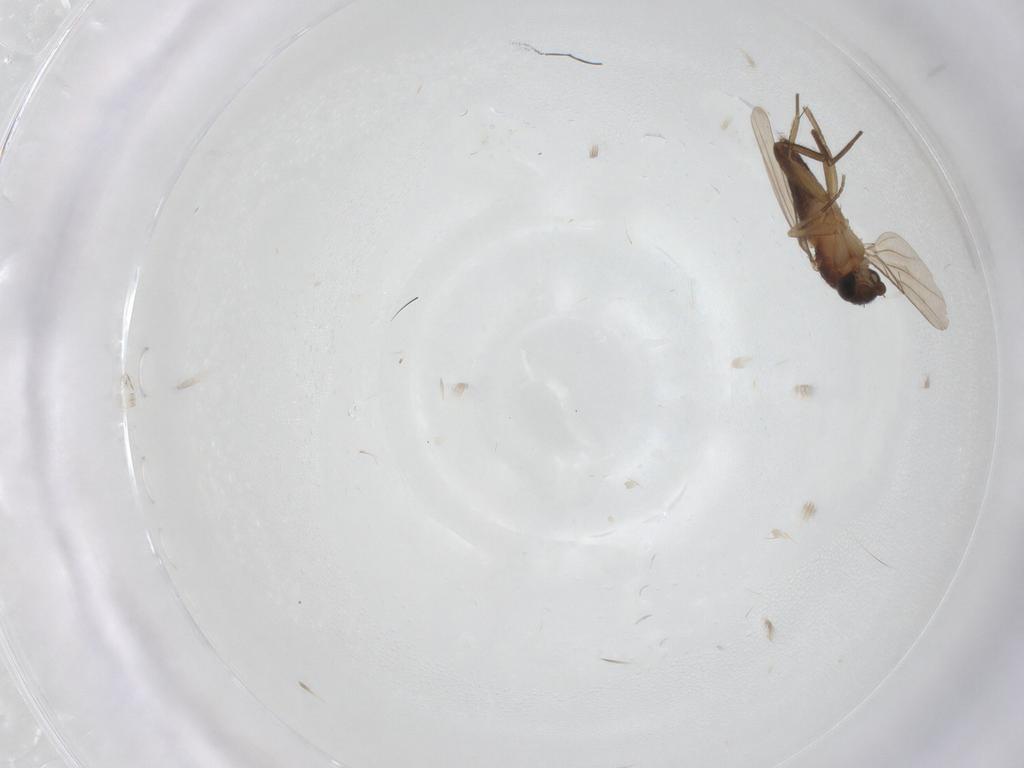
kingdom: Animalia
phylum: Arthropoda
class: Insecta
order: Diptera
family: Phoridae
